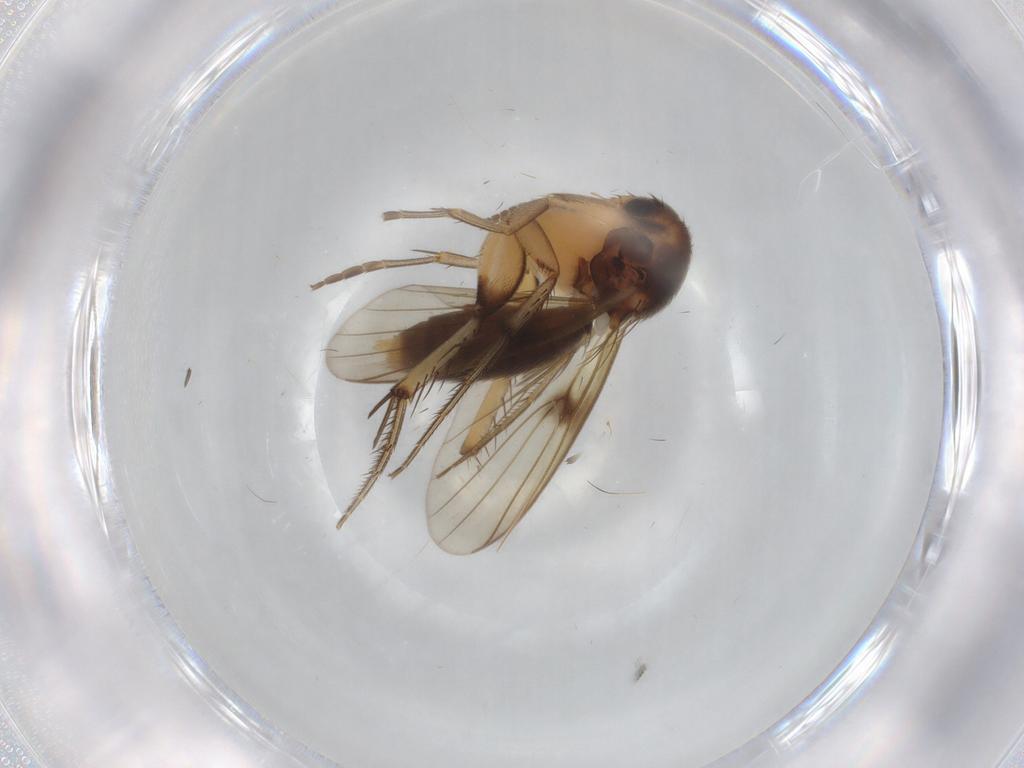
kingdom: Animalia
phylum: Arthropoda
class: Insecta
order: Diptera
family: Mycetophilidae
